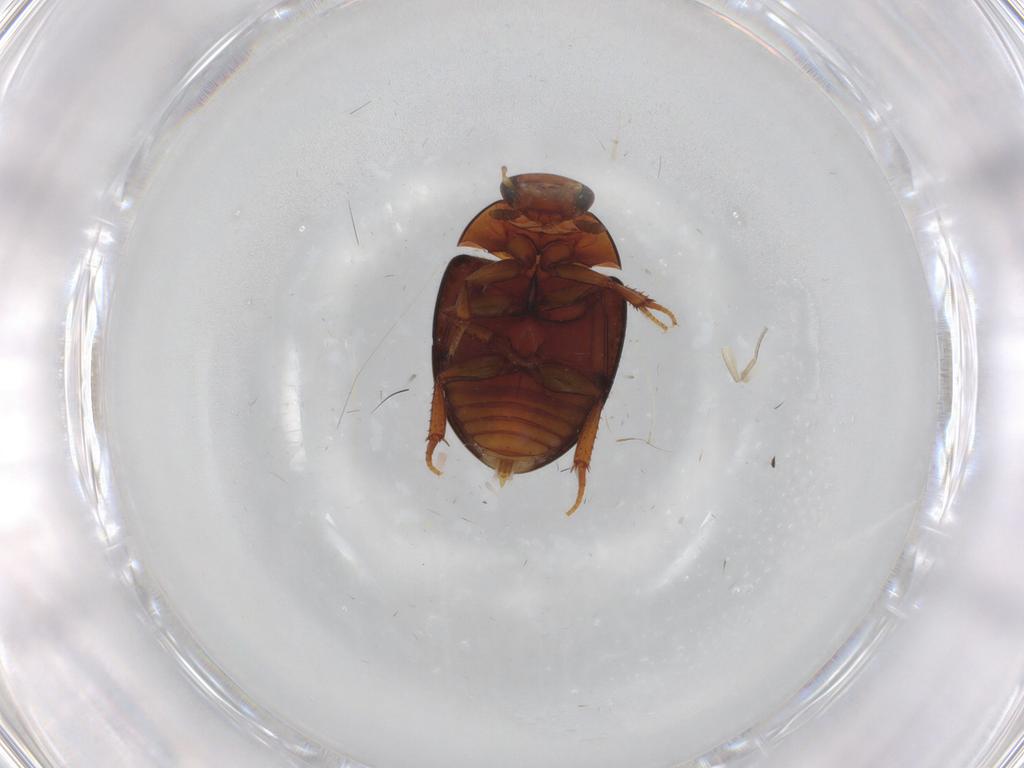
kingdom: Animalia
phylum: Arthropoda
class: Insecta
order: Coleoptera
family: Hydrophilidae
